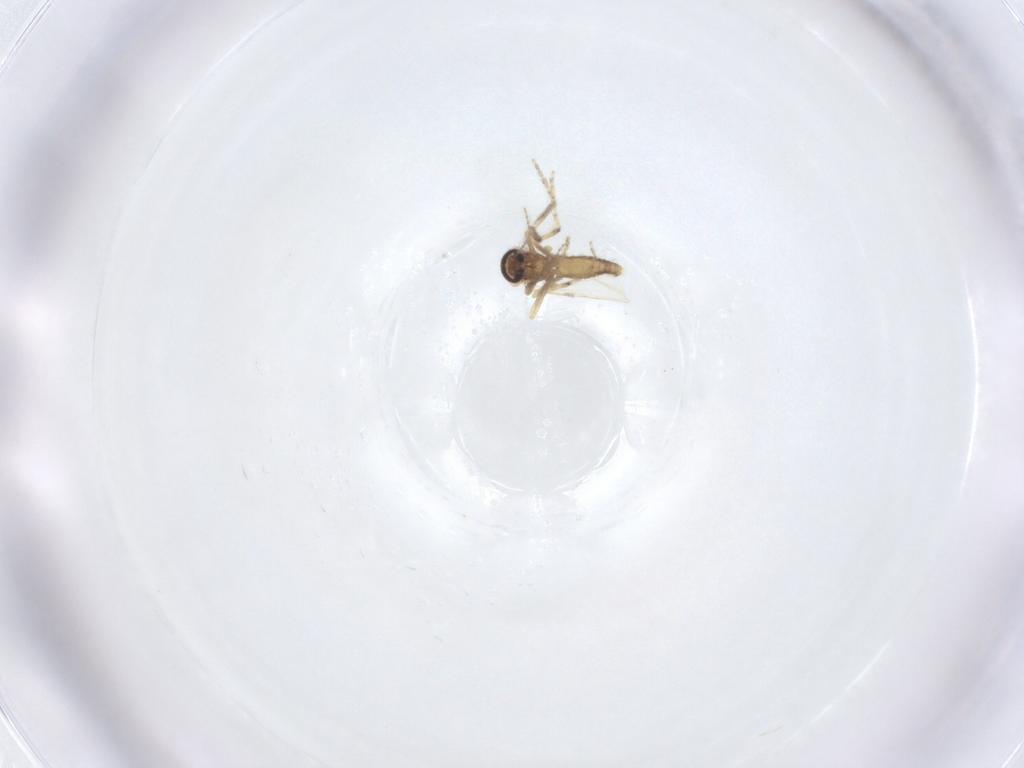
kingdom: Animalia
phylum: Arthropoda
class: Insecta
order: Diptera
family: Ceratopogonidae
